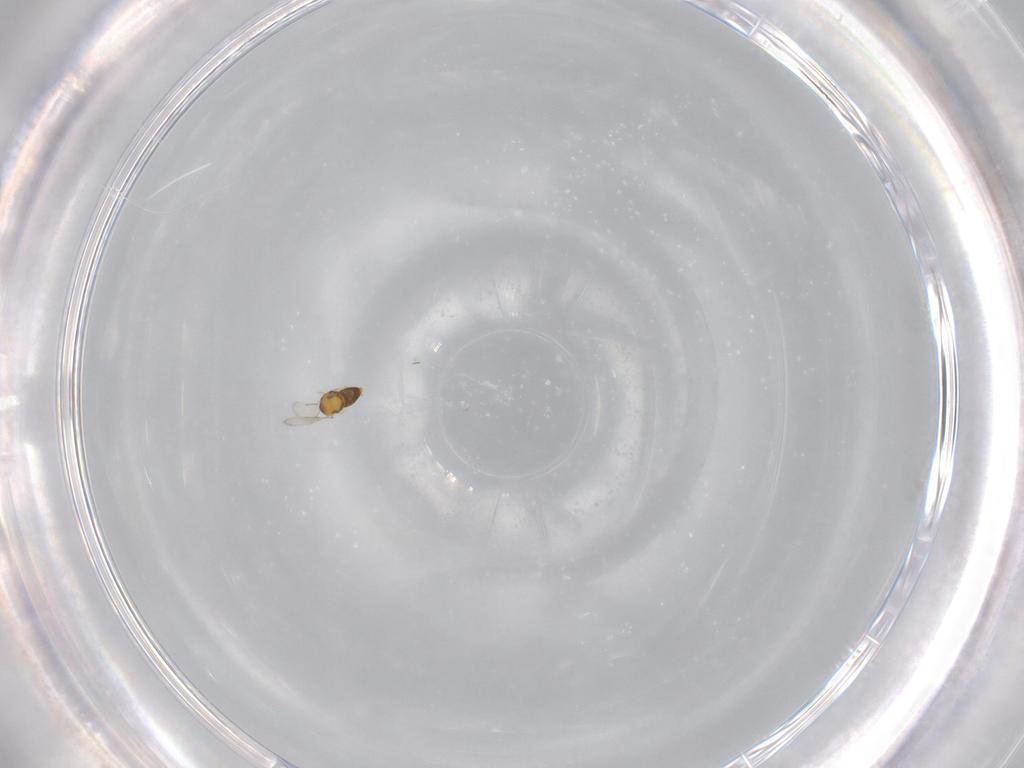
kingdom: Animalia
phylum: Arthropoda
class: Insecta
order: Hymenoptera
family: Aphelinidae
